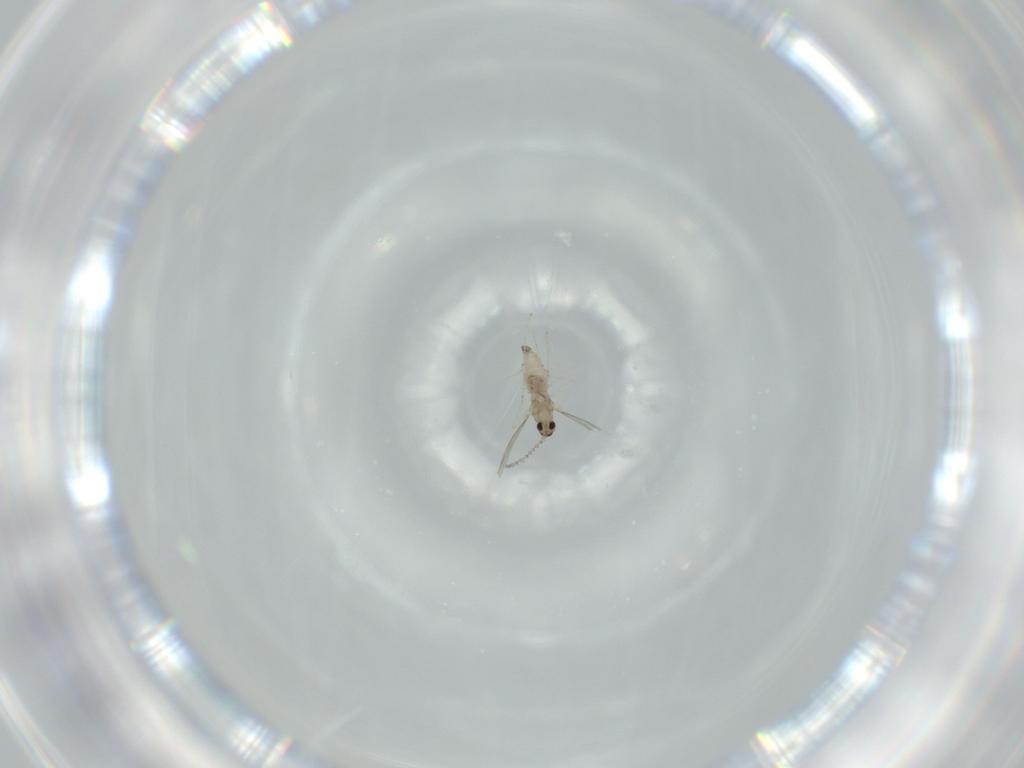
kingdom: Animalia
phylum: Arthropoda
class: Insecta
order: Diptera
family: Cecidomyiidae
